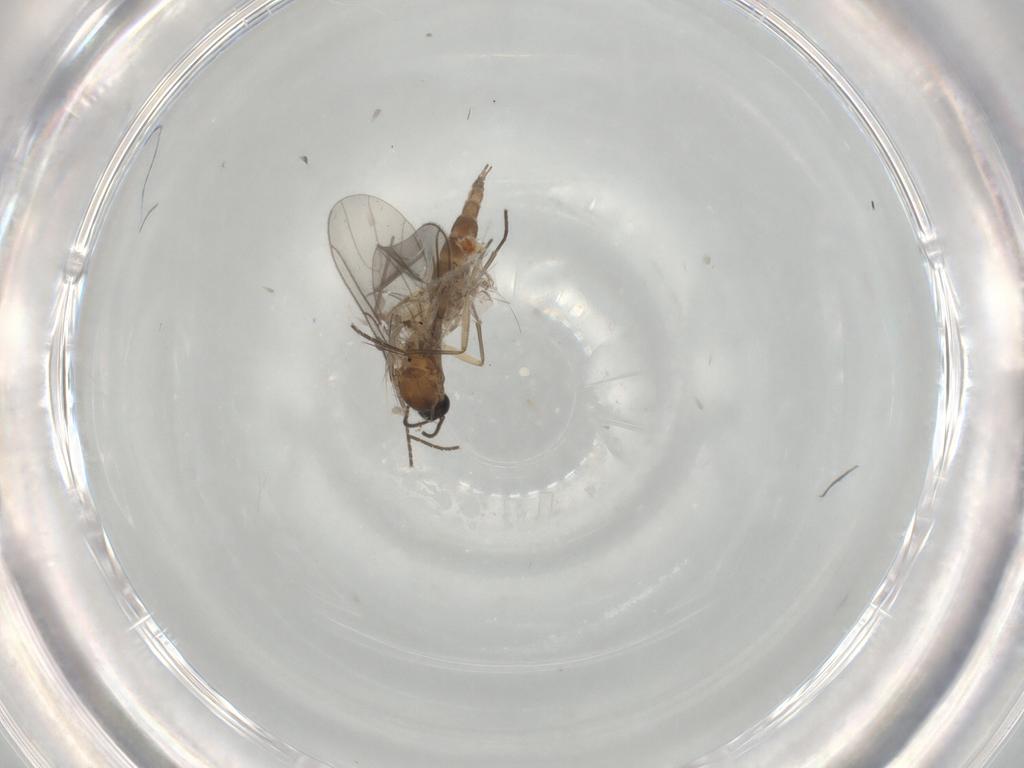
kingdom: Animalia
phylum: Arthropoda
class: Insecta
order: Diptera
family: Sciaridae
